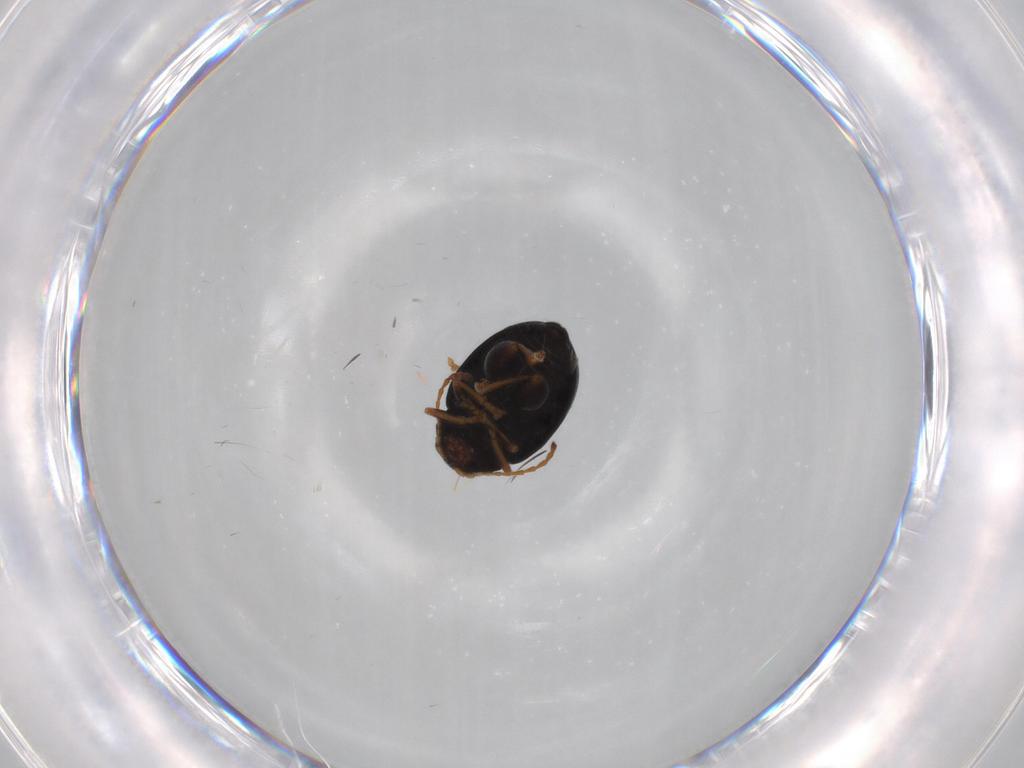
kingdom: Animalia
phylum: Arthropoda
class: Insecta
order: Coleoptera
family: Chrysomelidae
